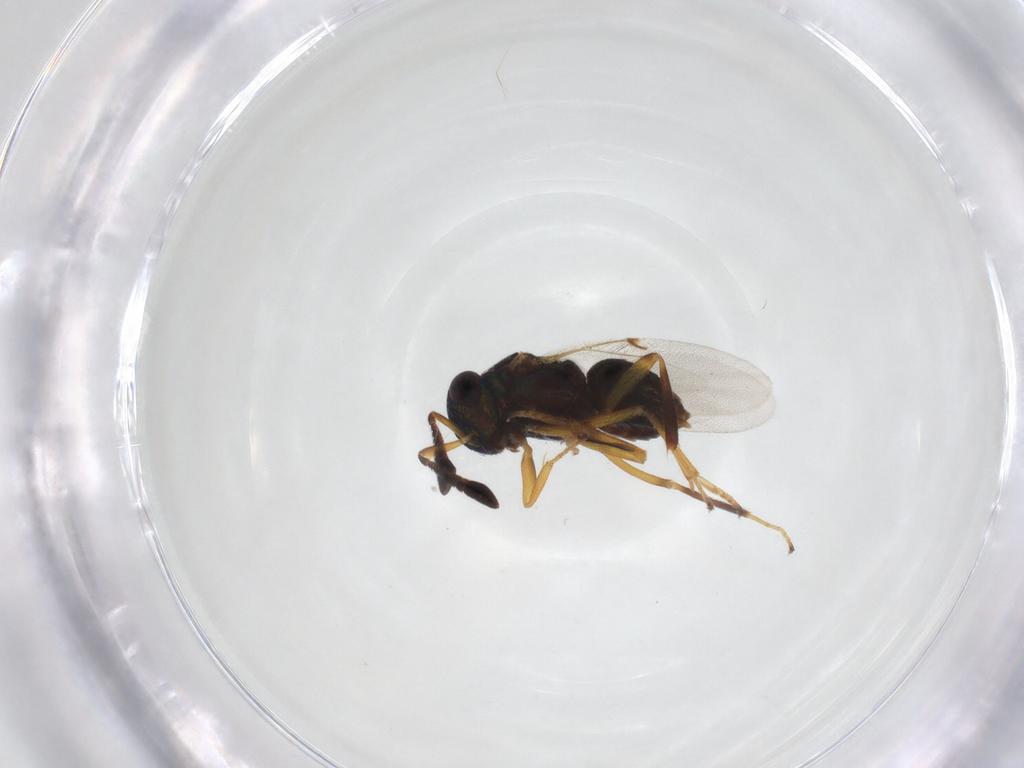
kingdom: Animalia
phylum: Arthropoda
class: Insecta
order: Hymenoptera
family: Encyrtidae
